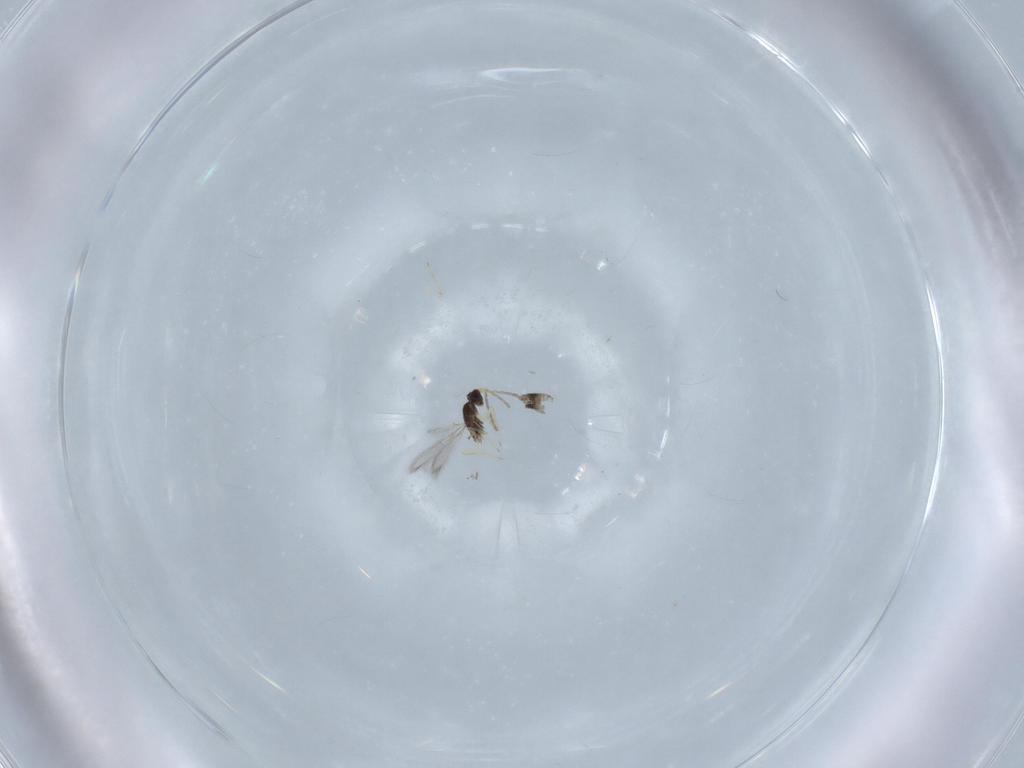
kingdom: Animalia
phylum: Arthropoda
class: Insecta
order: Hymenoptera
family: Mymaridae
